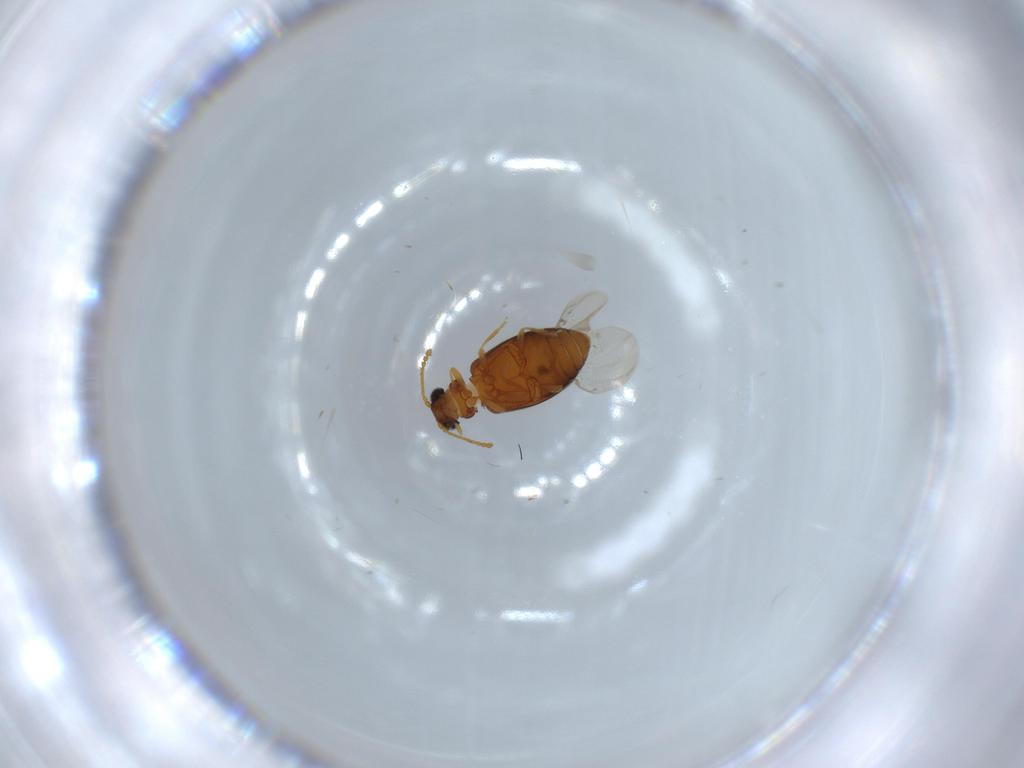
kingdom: Animalia
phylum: Arthropoda
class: Insecta
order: Coleoptera
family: Aderidae
